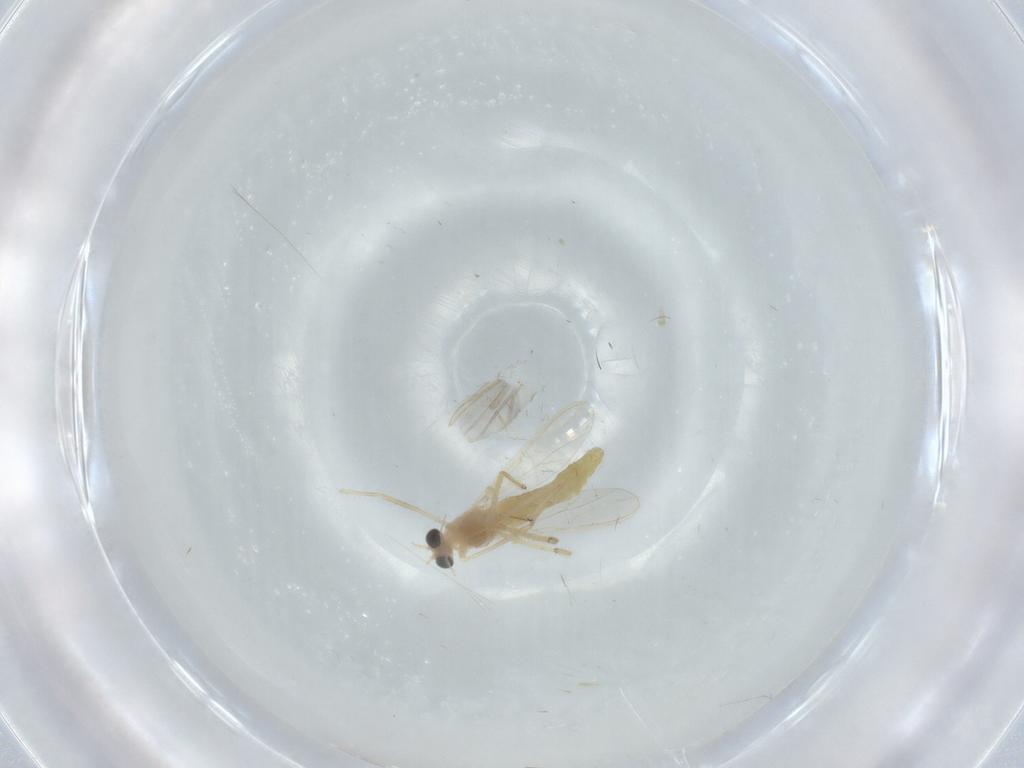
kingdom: Animalia
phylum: Arthropoda
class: Insecta
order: Diptera
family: Chironomidae
